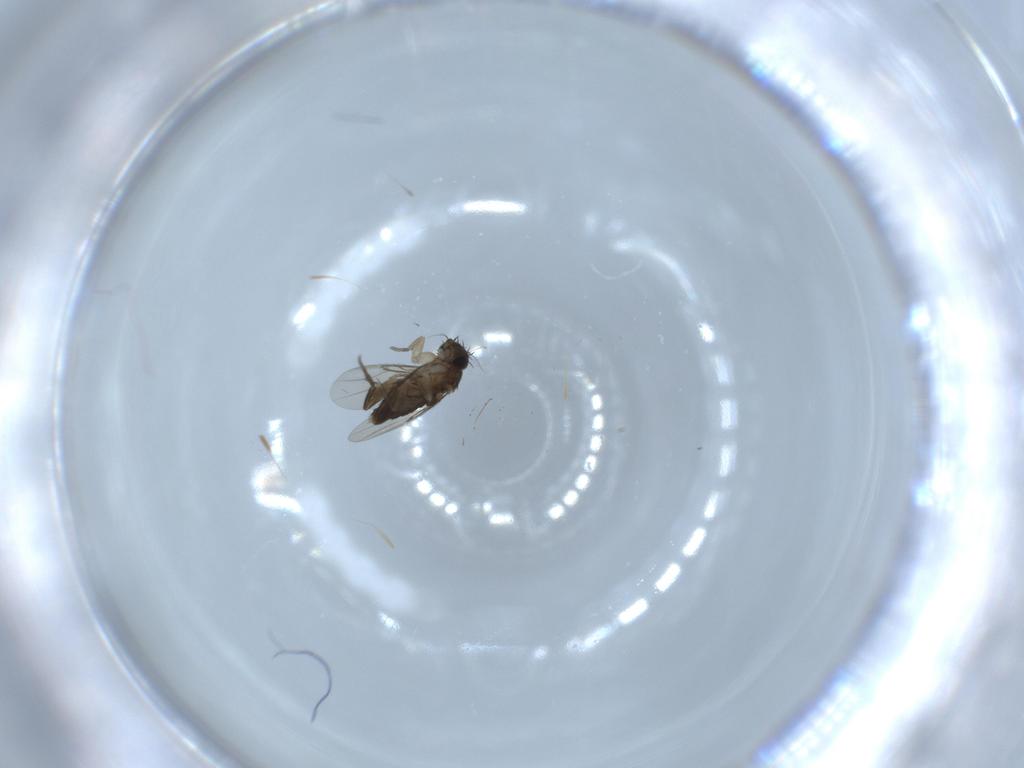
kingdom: Animalia
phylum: Arthropoda
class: Insecta
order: Diptera
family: Phoridae
